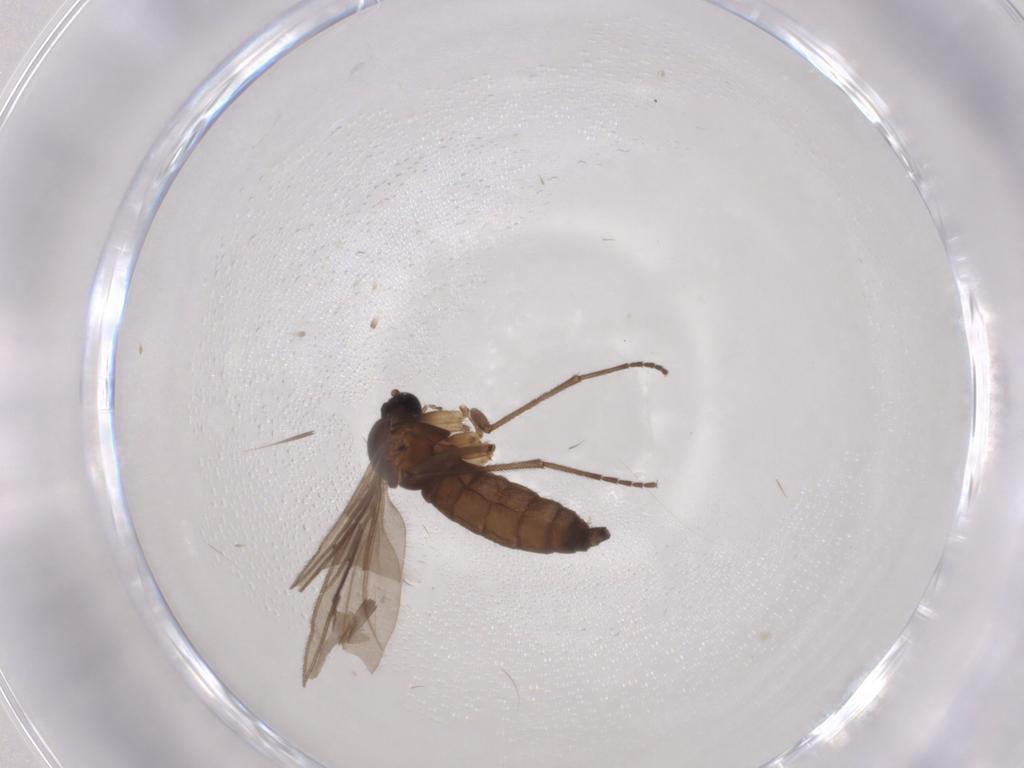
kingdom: Animalia
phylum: Arthropoda
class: Insecta
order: Diptera
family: Sciaridae
